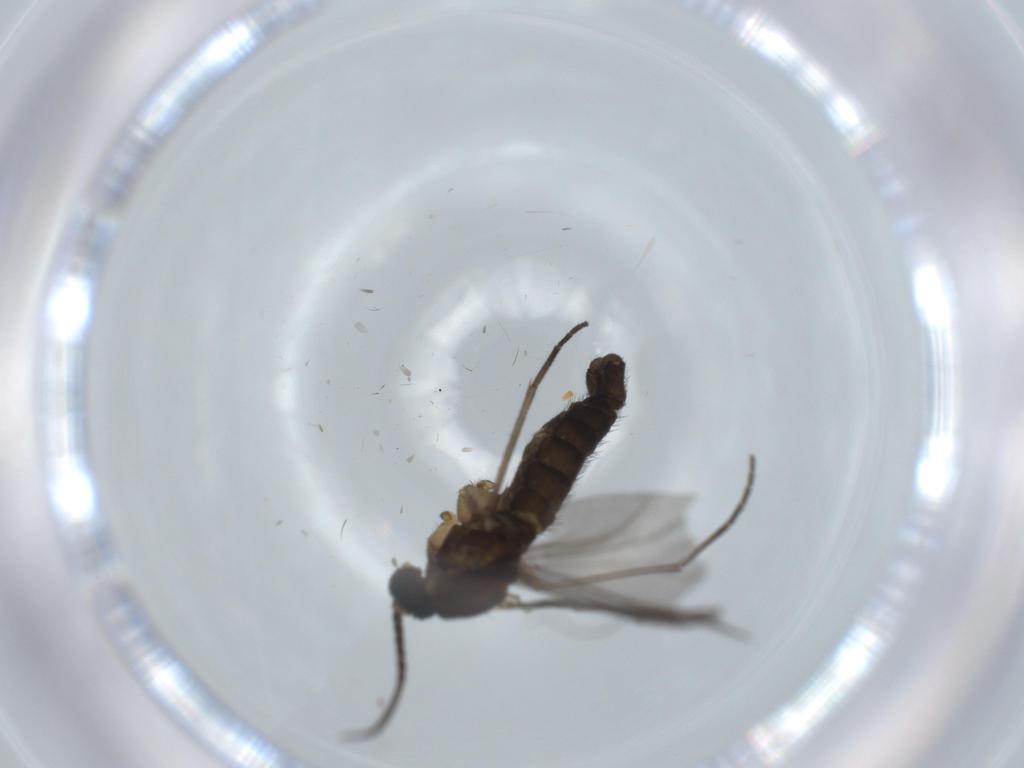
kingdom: Animalia
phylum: Arthropoda
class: Insecta
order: Diptera
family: Sciaridae
